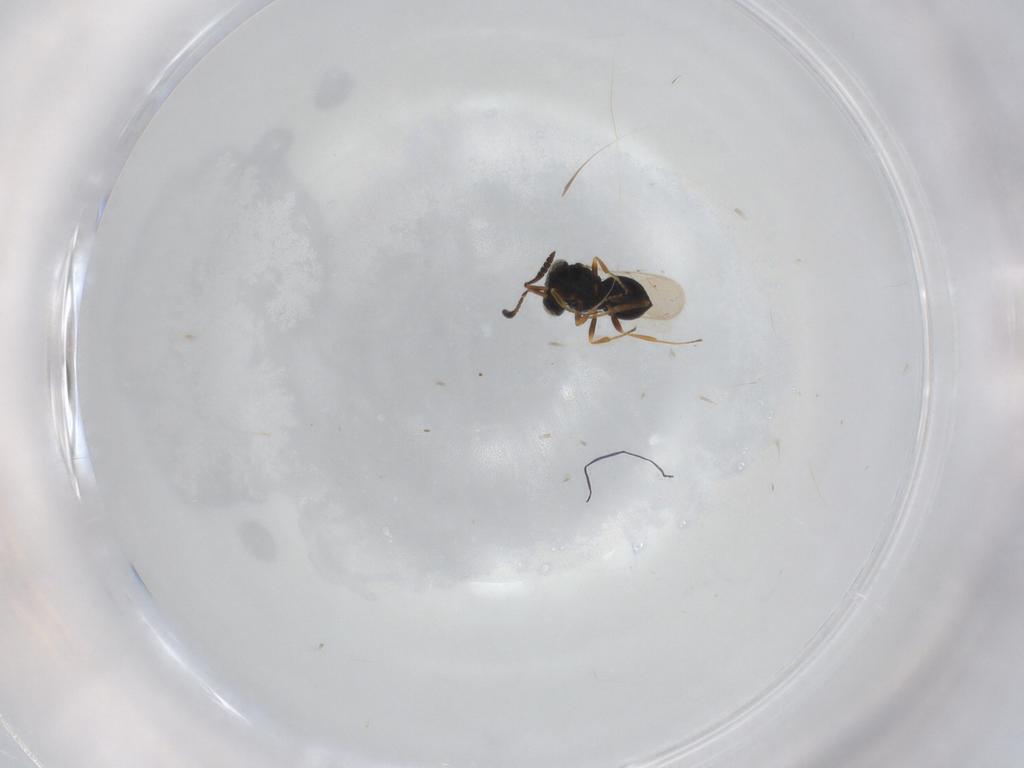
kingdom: Animalia
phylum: Arthropoda
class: Insecta
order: Hymenoptera
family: Scelionidae
